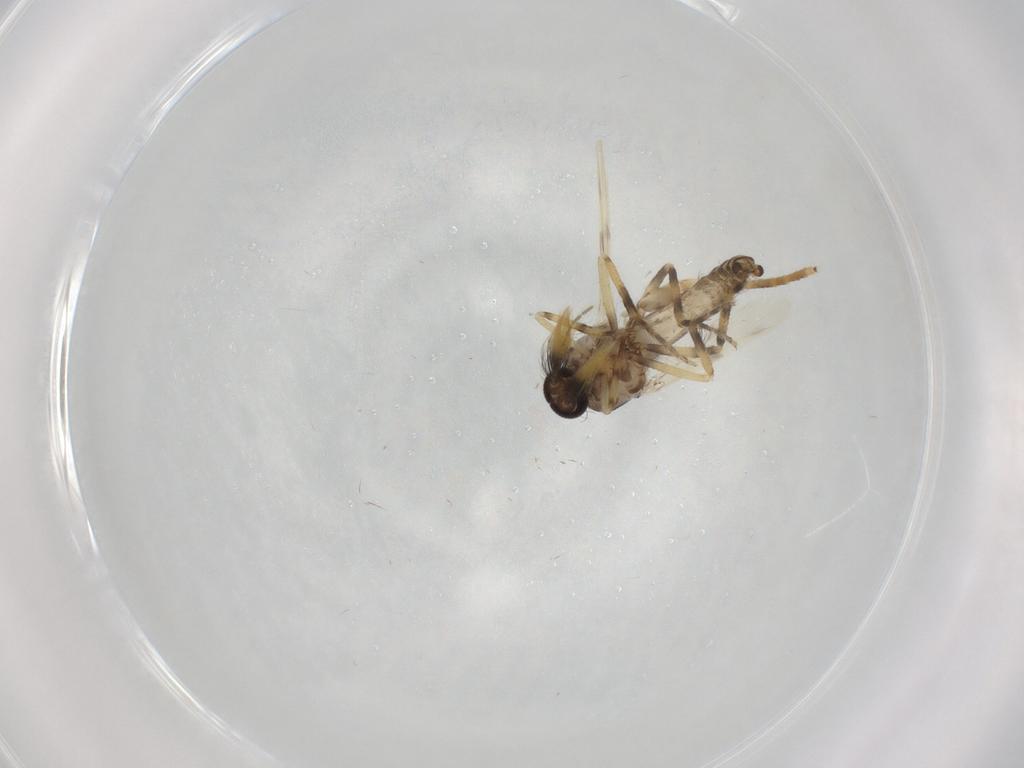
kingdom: Animalia
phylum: Arthropoda
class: Insecta
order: Diptera
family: Ceratopogonidae
